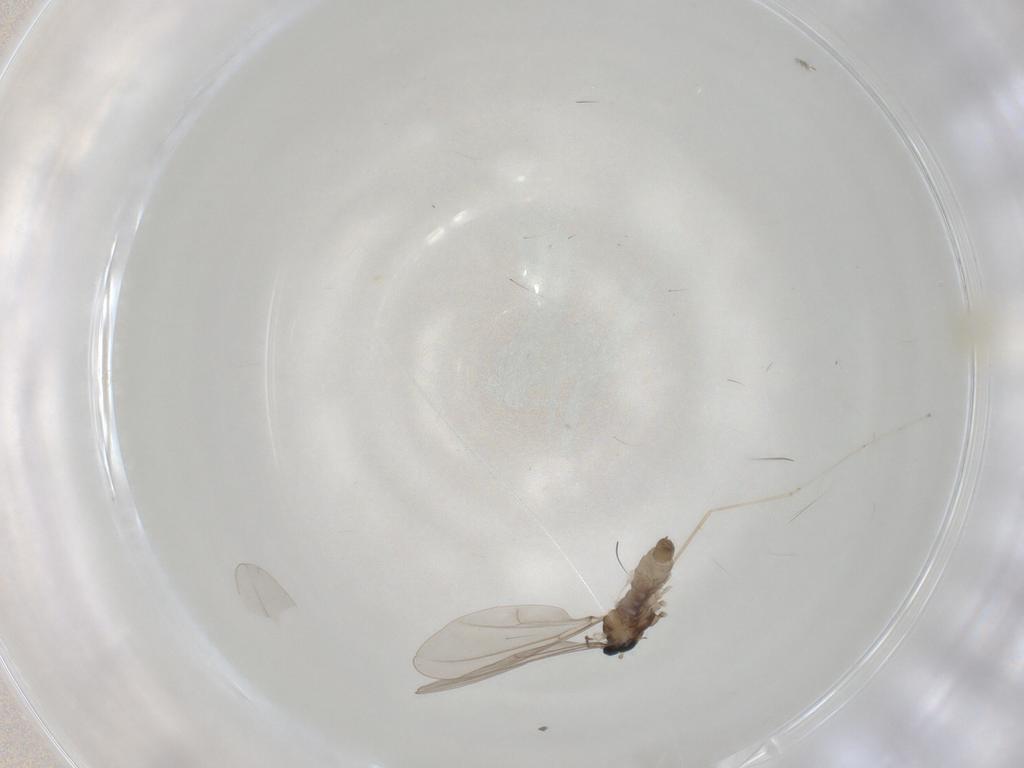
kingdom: Animalia
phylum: Arthropoda
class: Insecta
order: Diptera
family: Cecidomyiidae
